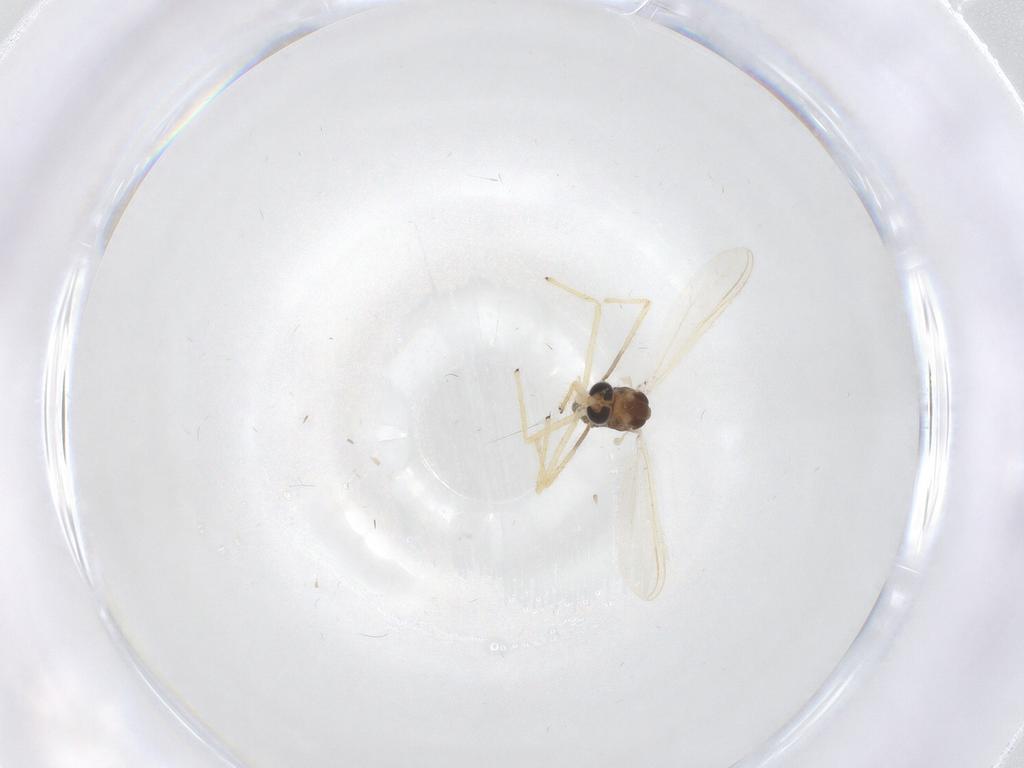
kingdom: Animalia
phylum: Arthropoda
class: Insecta
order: Diptera
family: Chironomidae
